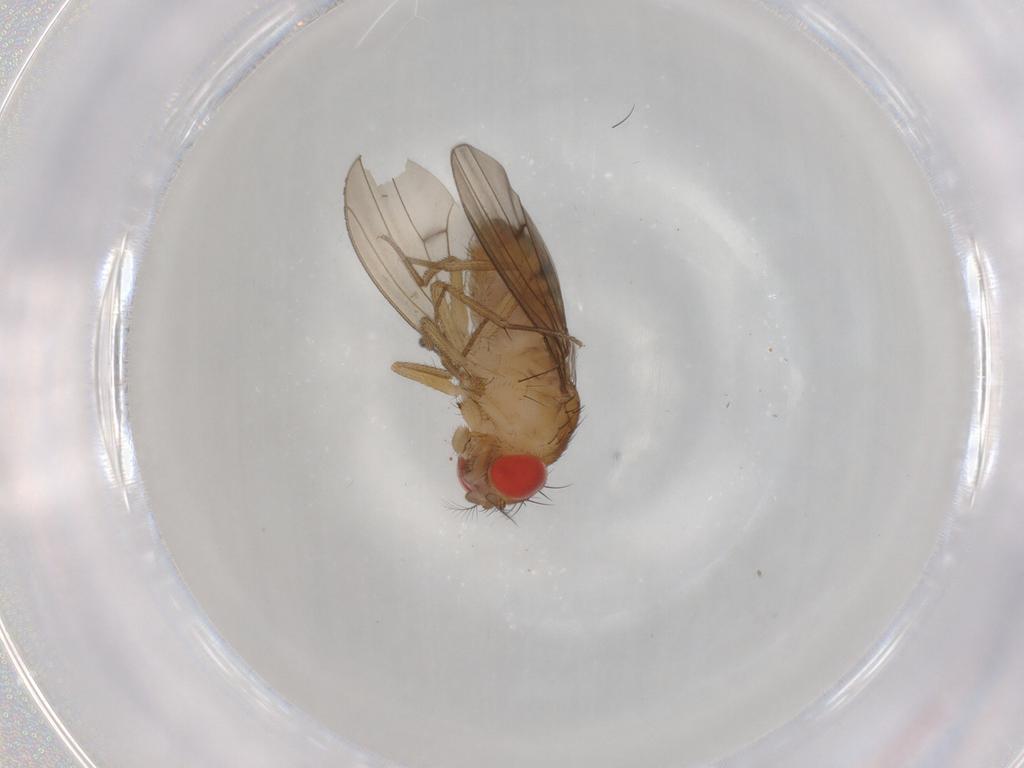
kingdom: Animalia
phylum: Arthropoda
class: Insecta
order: Diptera
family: Drosophilidae
